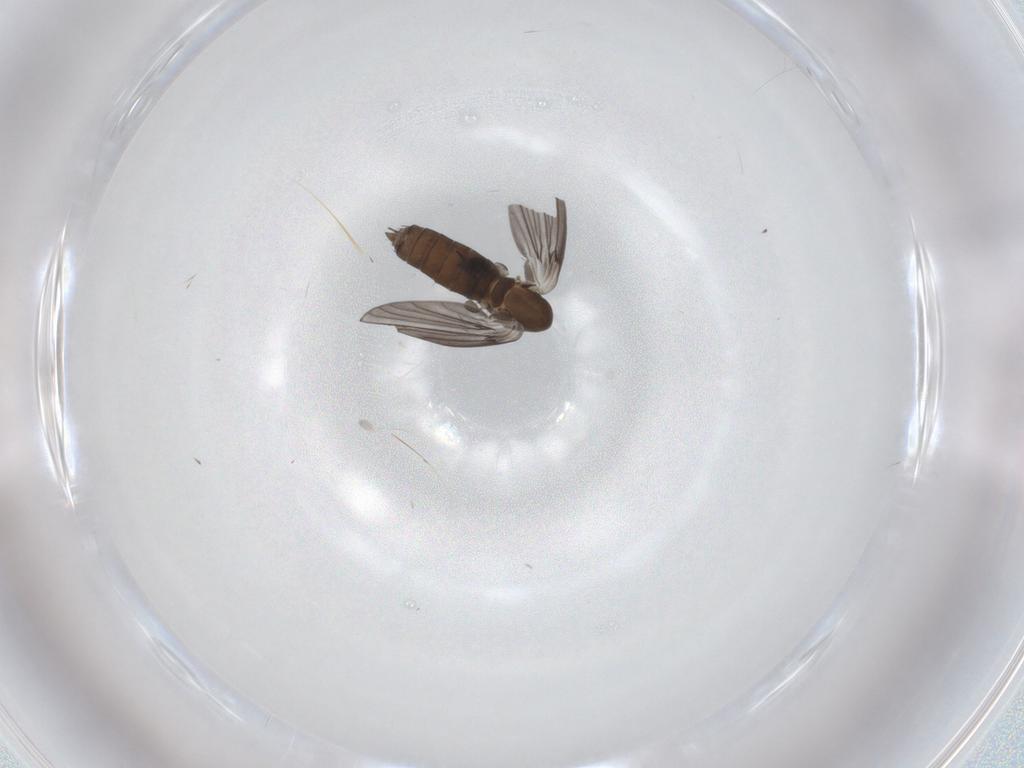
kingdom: Animalia
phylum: Arthropoda
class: Insecta
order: Diptera
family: Psychodidae
